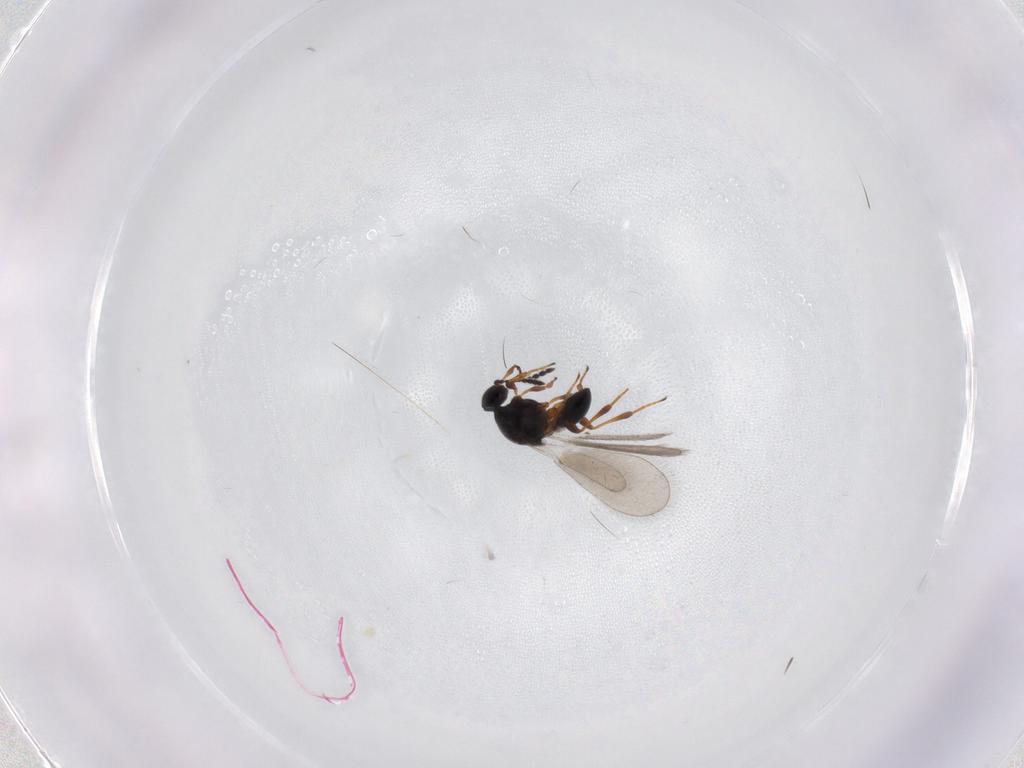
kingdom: Animalia
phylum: Arthropoda
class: Insecta
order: Hymenoptera
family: Platygastridae
